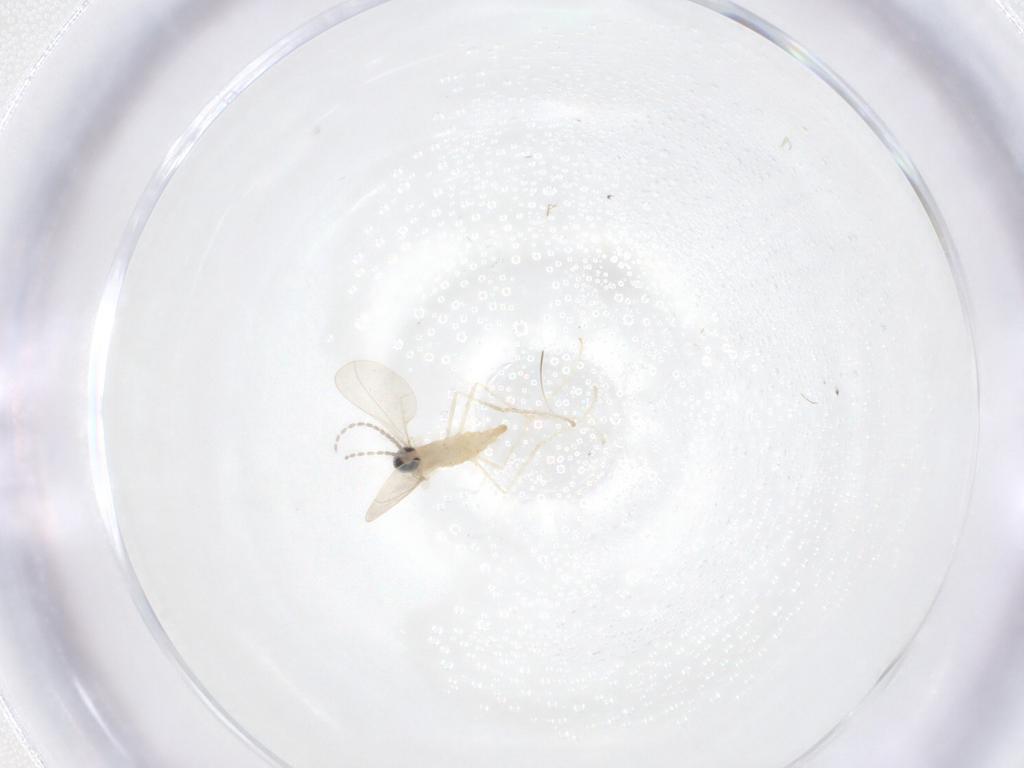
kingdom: Animalia
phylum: Arthropoda
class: Insecta
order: Diptera
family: Cecidomyiidae
